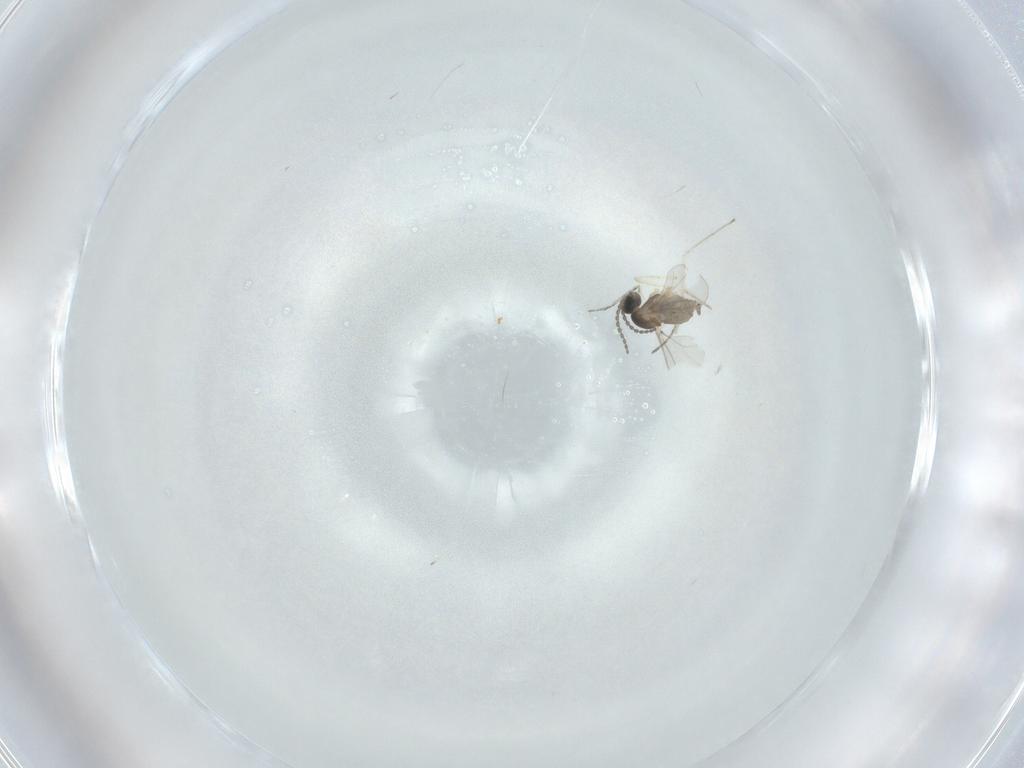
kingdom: Animalia
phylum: Arthropoda
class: Insecta
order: Diptera
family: Cecidomyiidae
